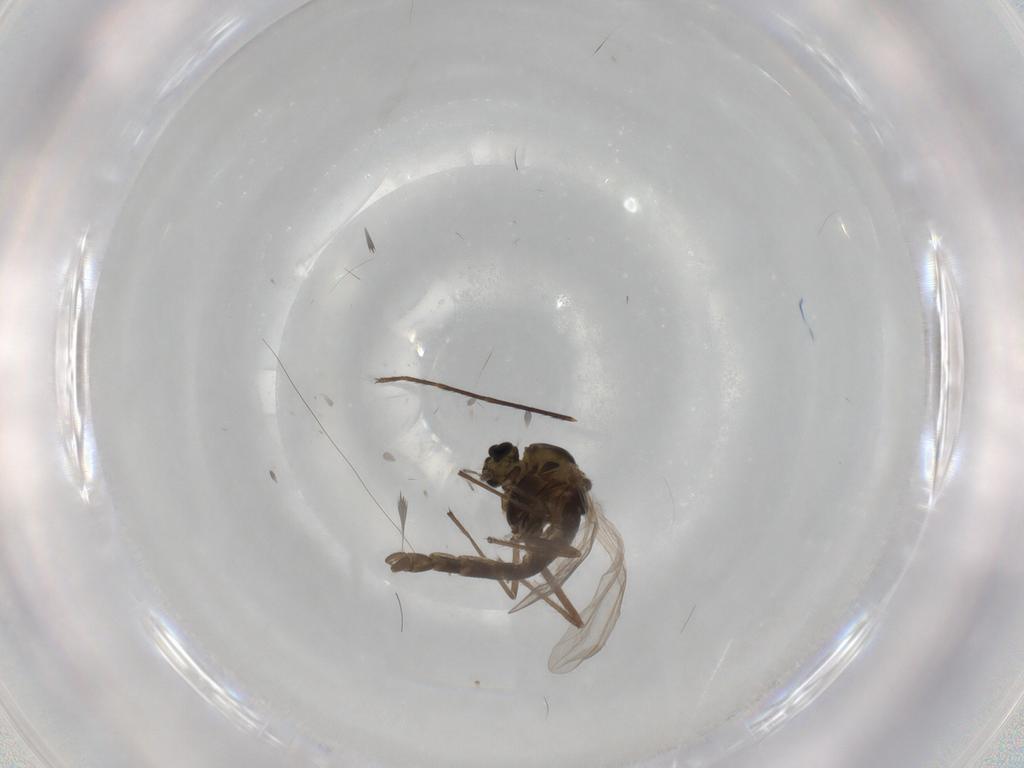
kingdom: Animalia
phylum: Arthropoda
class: Insecta
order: Diptera
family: Chironomidae
